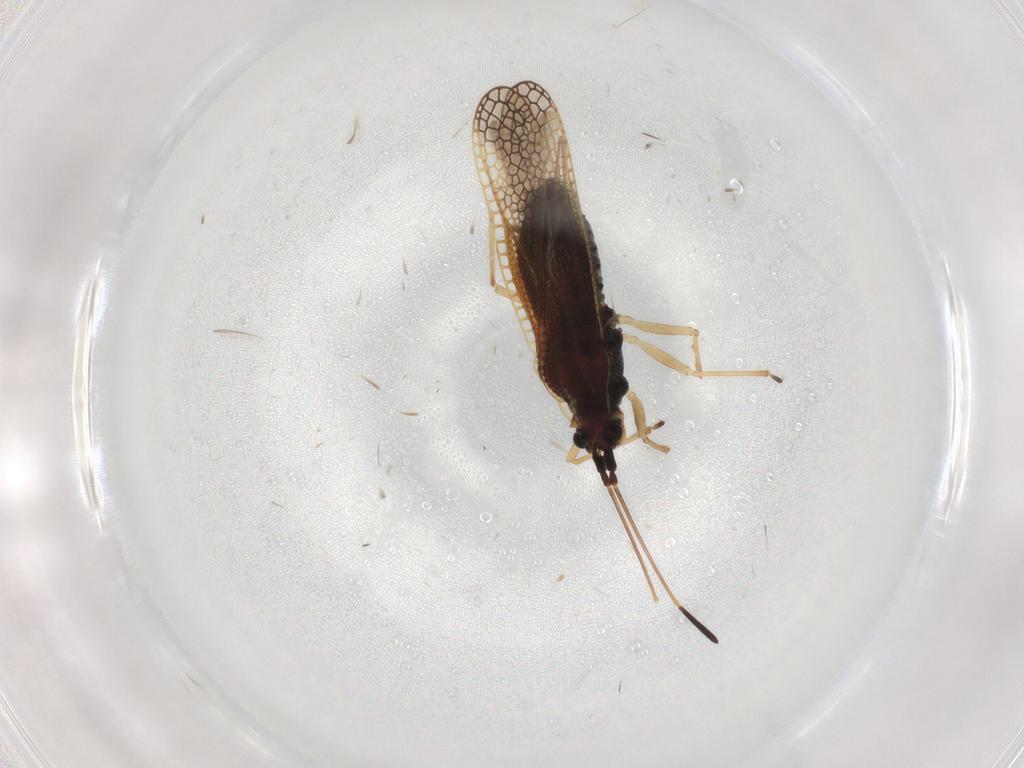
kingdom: Animalia
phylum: Arthropoda
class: Insecta
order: Hemiptera
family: Tingidae
